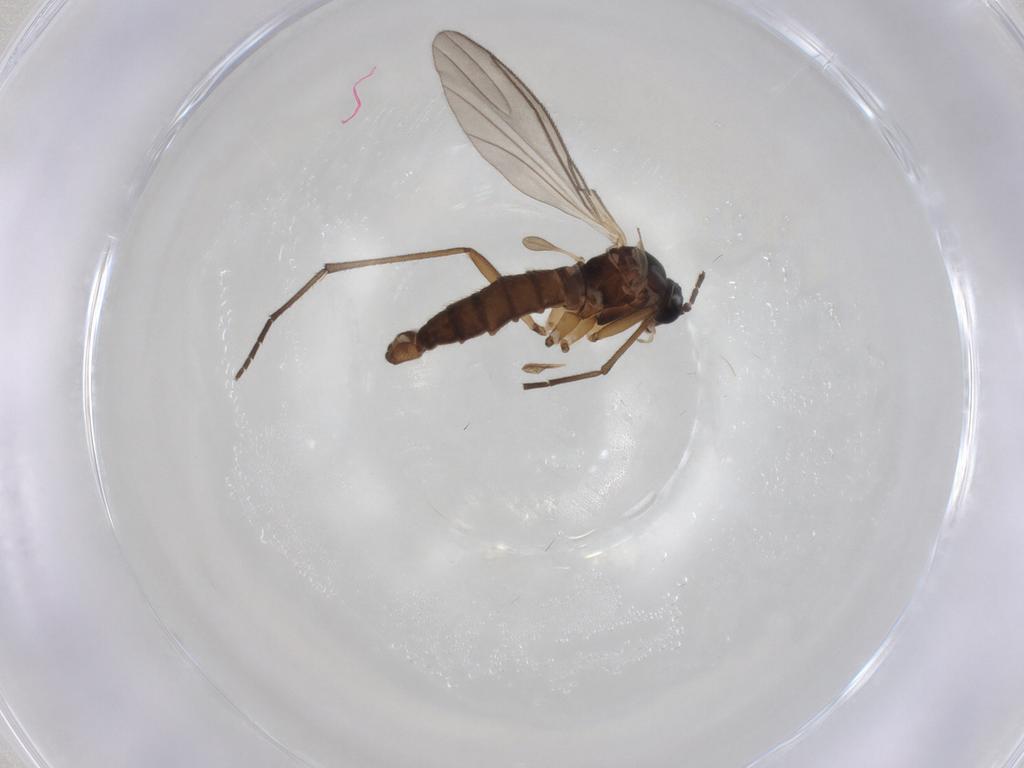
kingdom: Animalia
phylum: Arthropoda
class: Insecta
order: Diptera
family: Sciaridae
